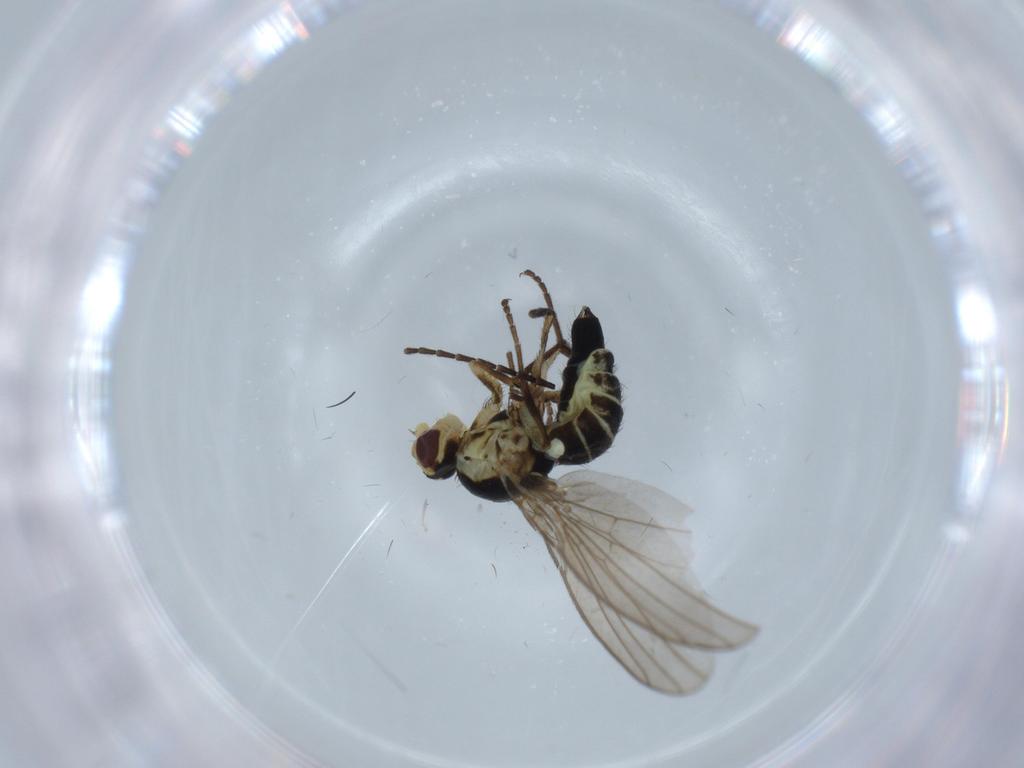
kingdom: Animalia
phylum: Arthropoda
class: Insecta
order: Diptera
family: Agromyzidae
